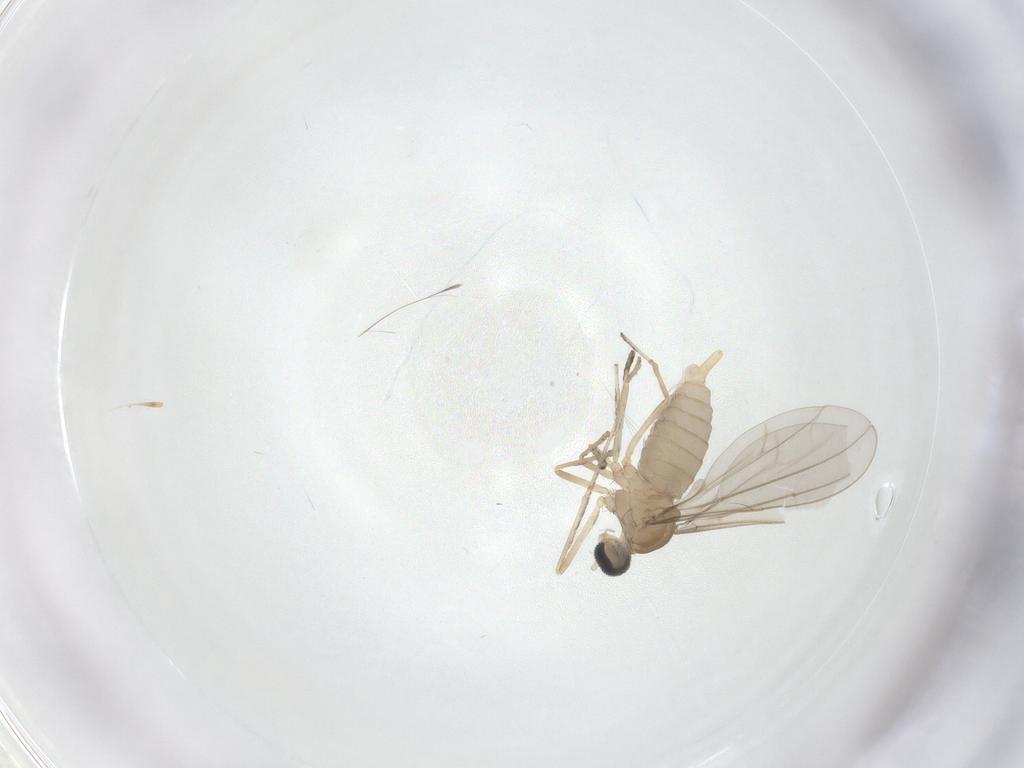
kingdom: Animalia
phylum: Arthropoda
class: Insecta
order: Diptera
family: Cecidomyiidae
